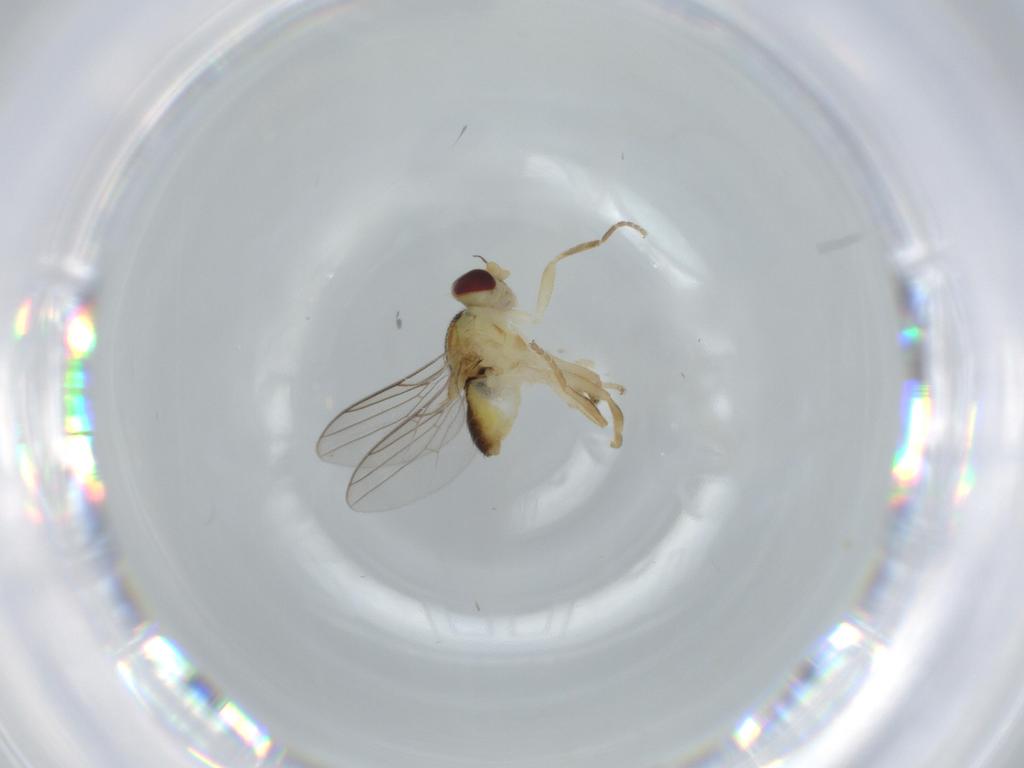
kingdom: Animalia
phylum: Arthropoda
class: Insecta
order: Diptera
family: Chloropidae
